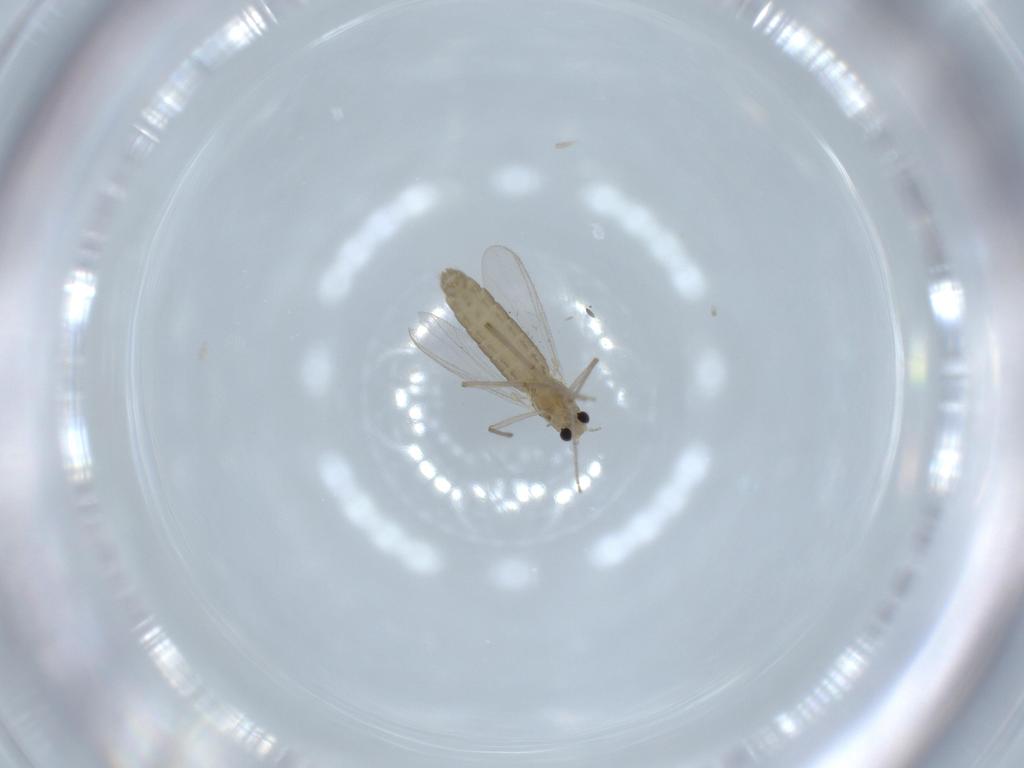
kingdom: Animalia
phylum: Arthropoda
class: Insecta
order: Diptera
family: Chironomidae
